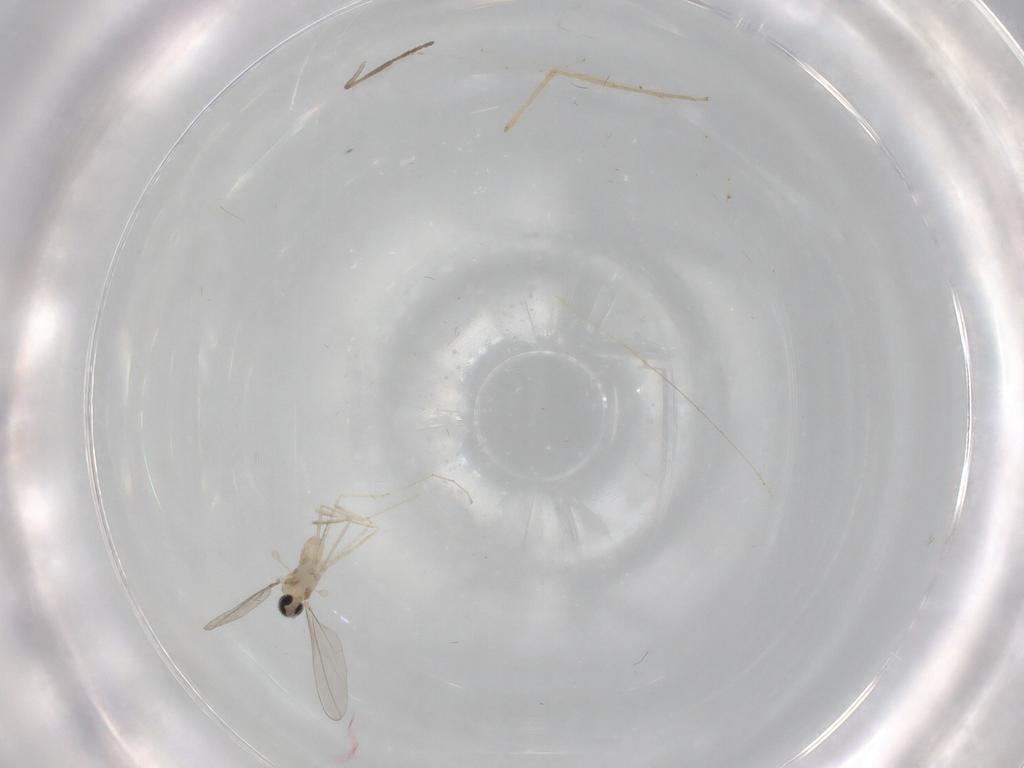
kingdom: Animalia
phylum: Arthropoda
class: Insecta
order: Diptera
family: Cecidomyiidae
